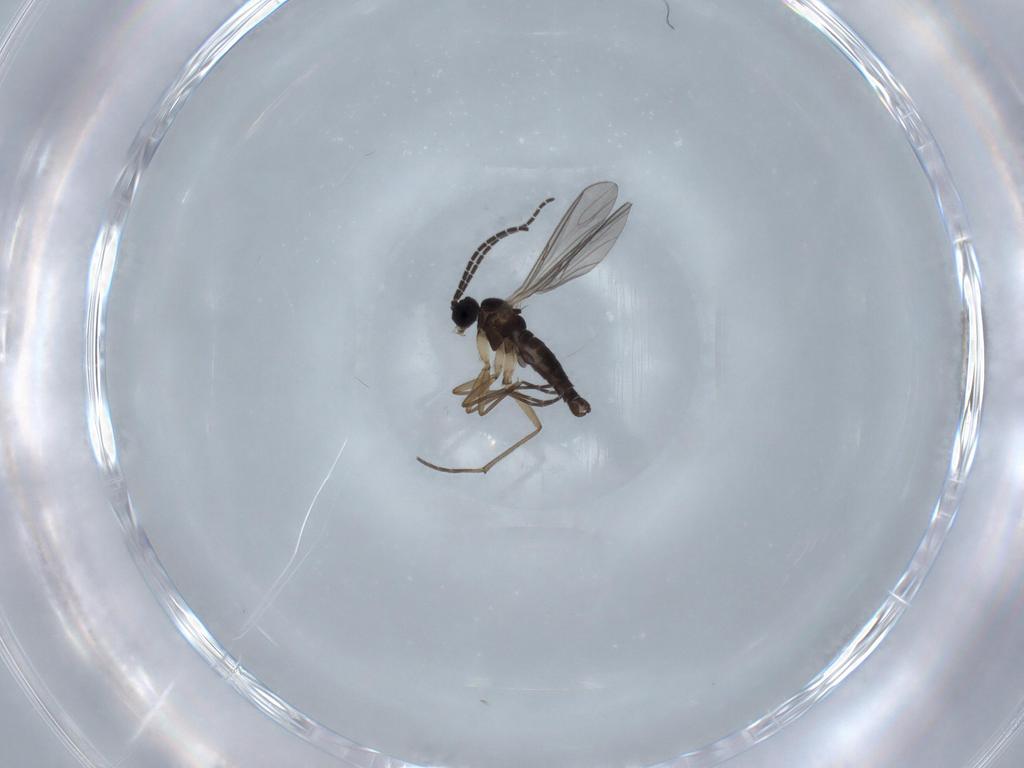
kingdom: Animalia
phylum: Arthropoda
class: Insecta
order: Diptera
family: Sciaridae
